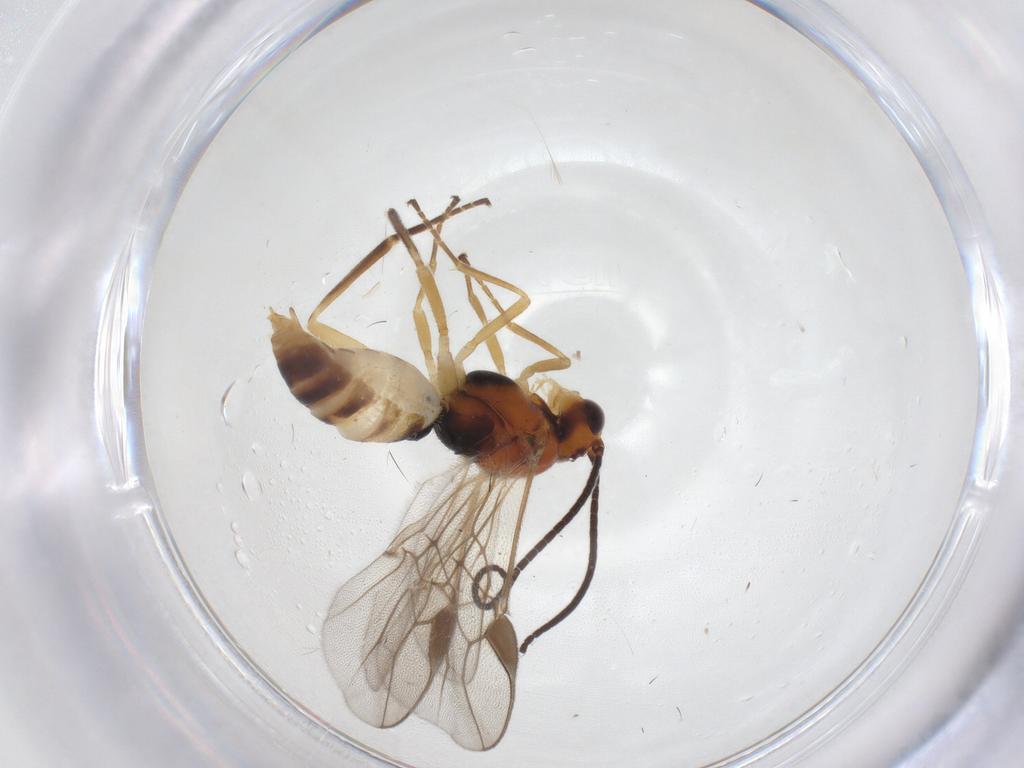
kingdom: Animalia
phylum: Arthropoda
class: Insecta
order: Hymenoptera
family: Braconidae
